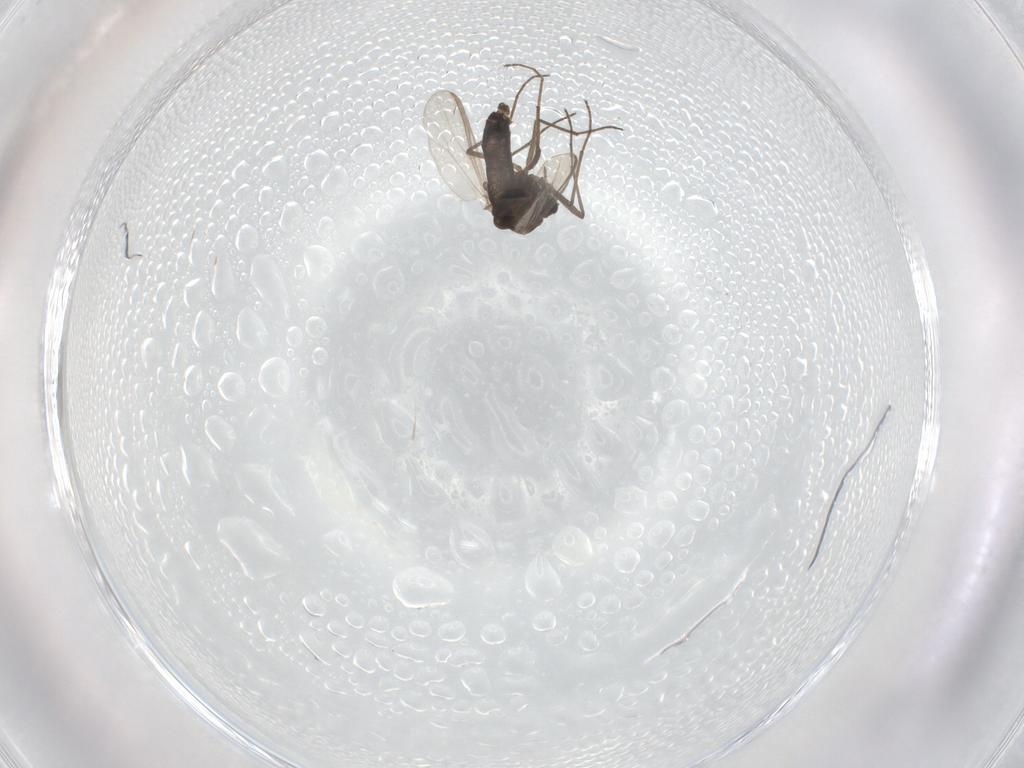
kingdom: Animalia
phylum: Arthropoda
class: Insecta
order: Diptera
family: Chironomidae
